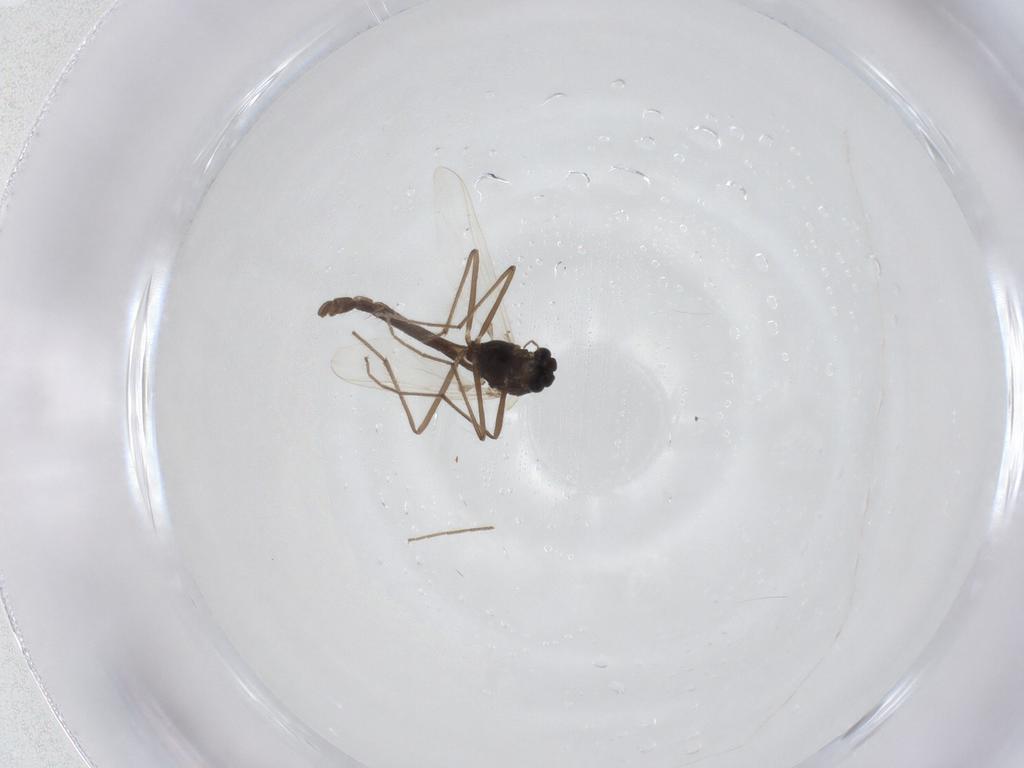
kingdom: Animalia
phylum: Arthropoda
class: Insecta
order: Diptera
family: Chironomidae
